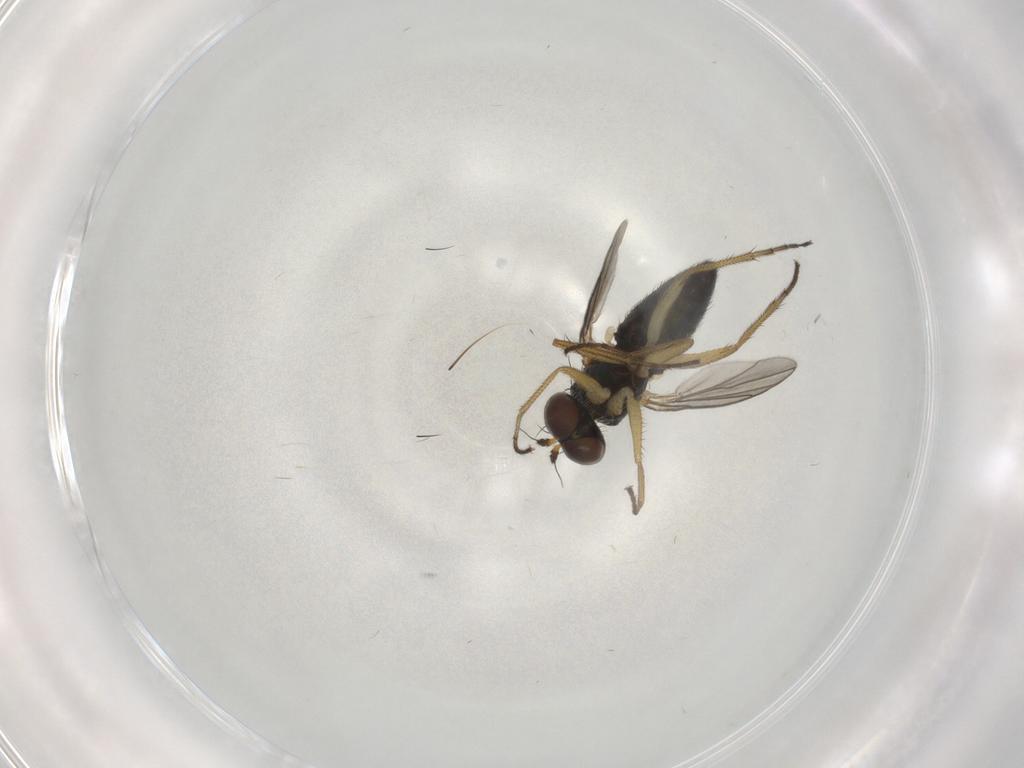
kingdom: Animalia
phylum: Arthropoda
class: Insecta
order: Diptera
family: Dolichopodidae
